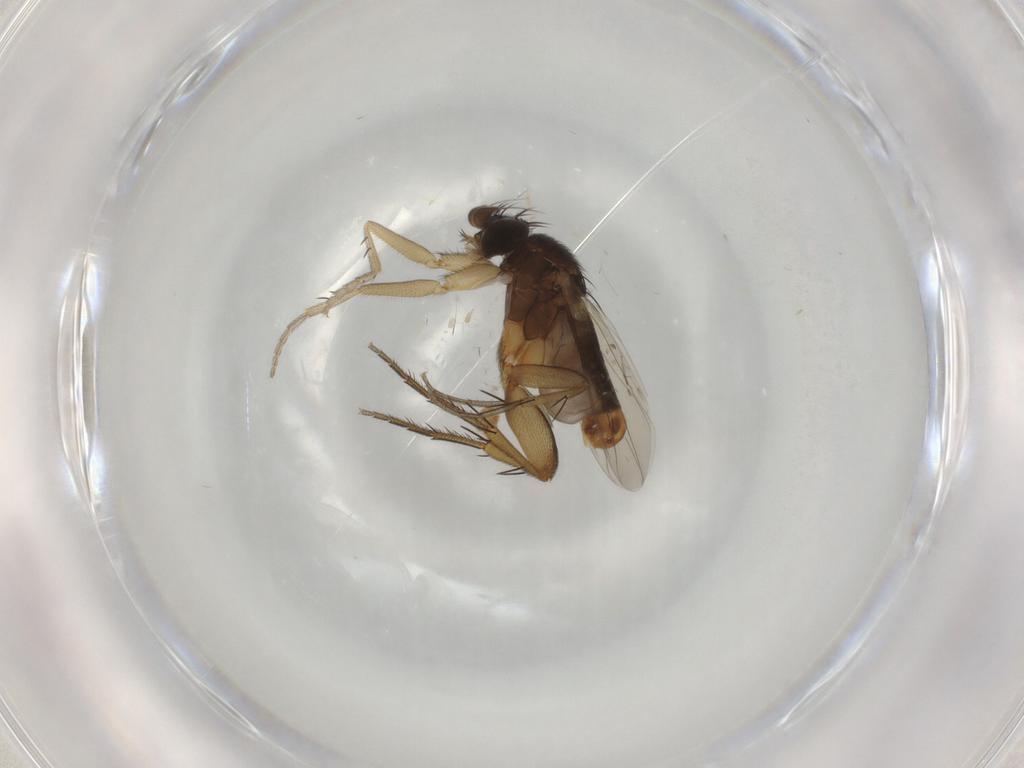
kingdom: Animalia
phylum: Arthropoda
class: Insecta
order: Diptera
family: Phoridae
